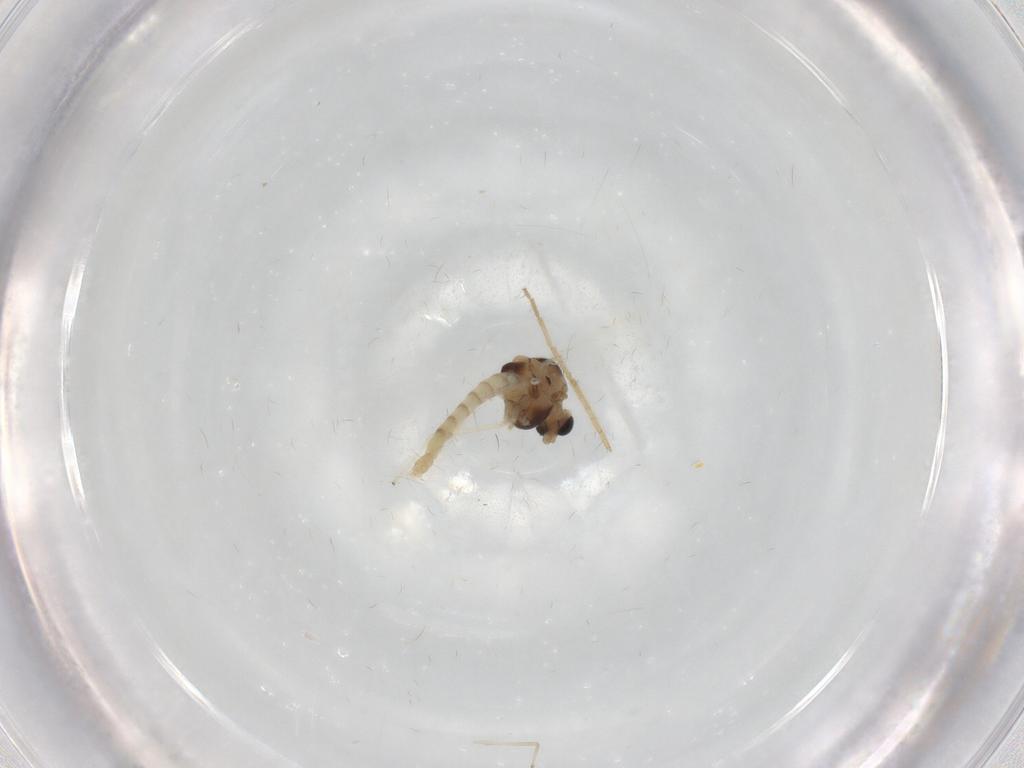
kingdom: Animalia
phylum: Arthropoda
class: Insecta
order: Diptera
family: Chironomidae
